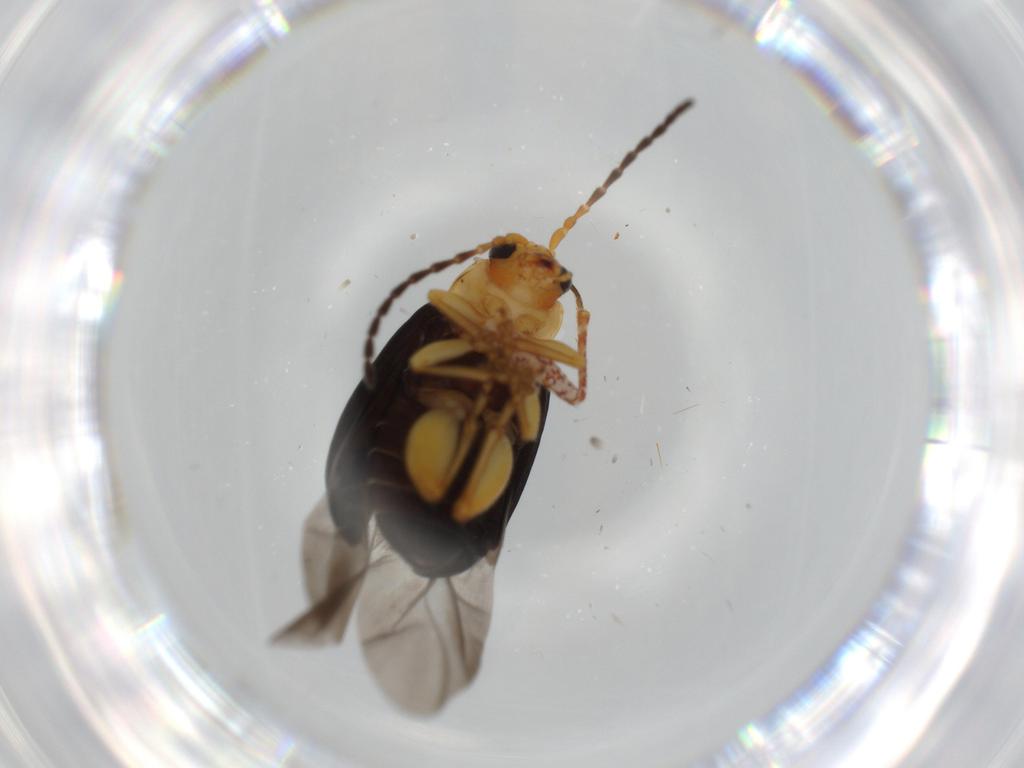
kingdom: Animalia
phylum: Arthropoda
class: Insecta
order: Coleoptera
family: Chrysomelidae
